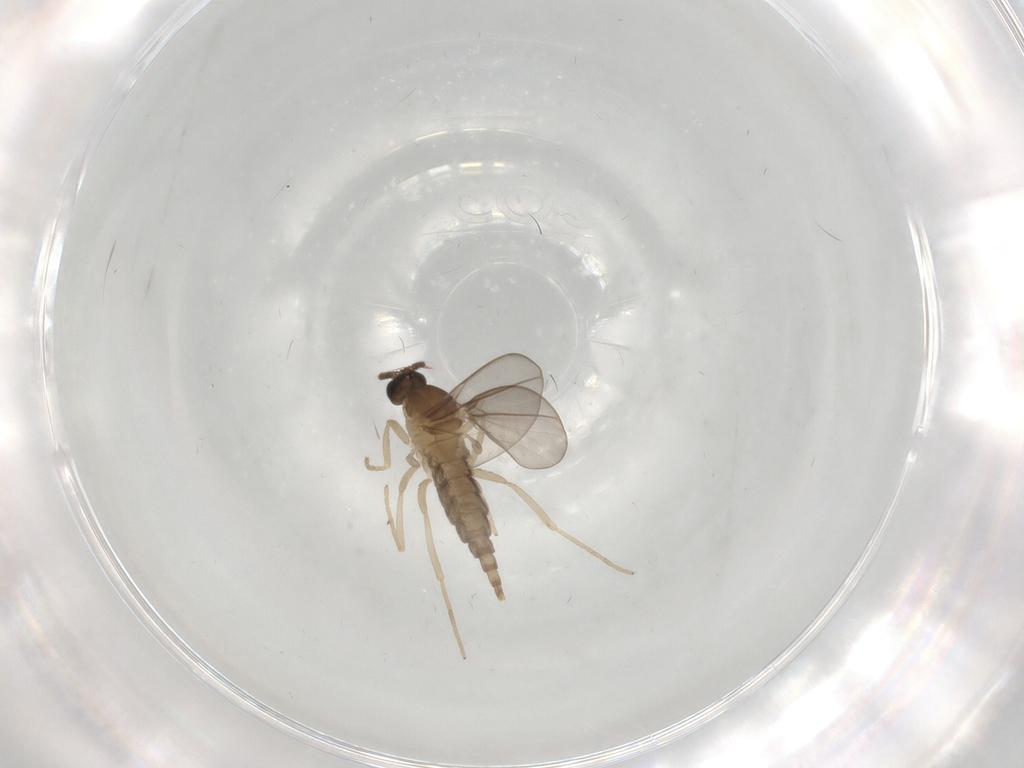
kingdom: Animalia
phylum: Arthropoda
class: Insecta
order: Diptera
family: Cecidomyiidae
